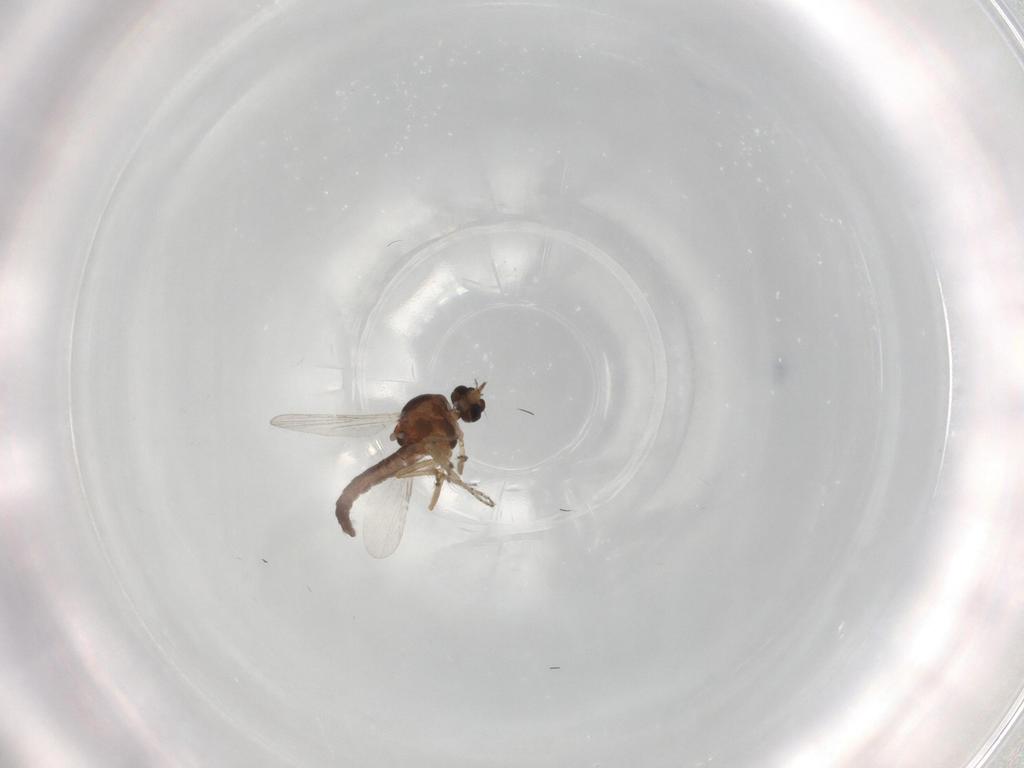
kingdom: Animalia
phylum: Arthropoda
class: Insecta
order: Diptera
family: Ceratopogonidae
